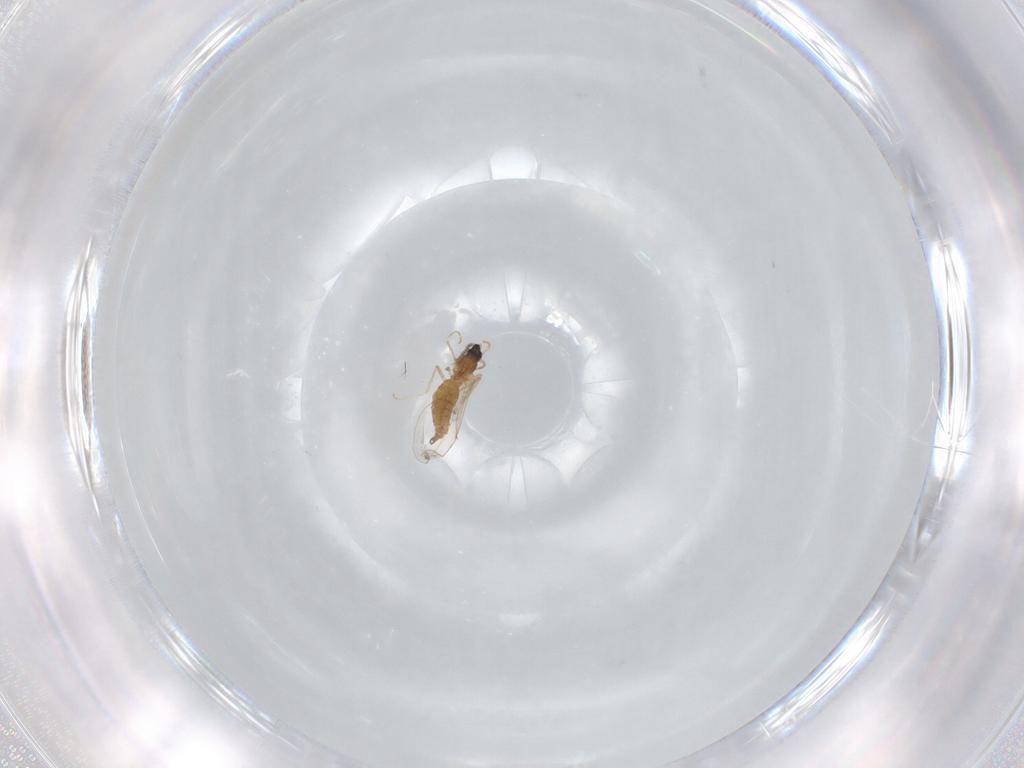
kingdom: Animalia
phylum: Arthropoda
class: Insecta
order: Diptera
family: Cecidomyiidae
